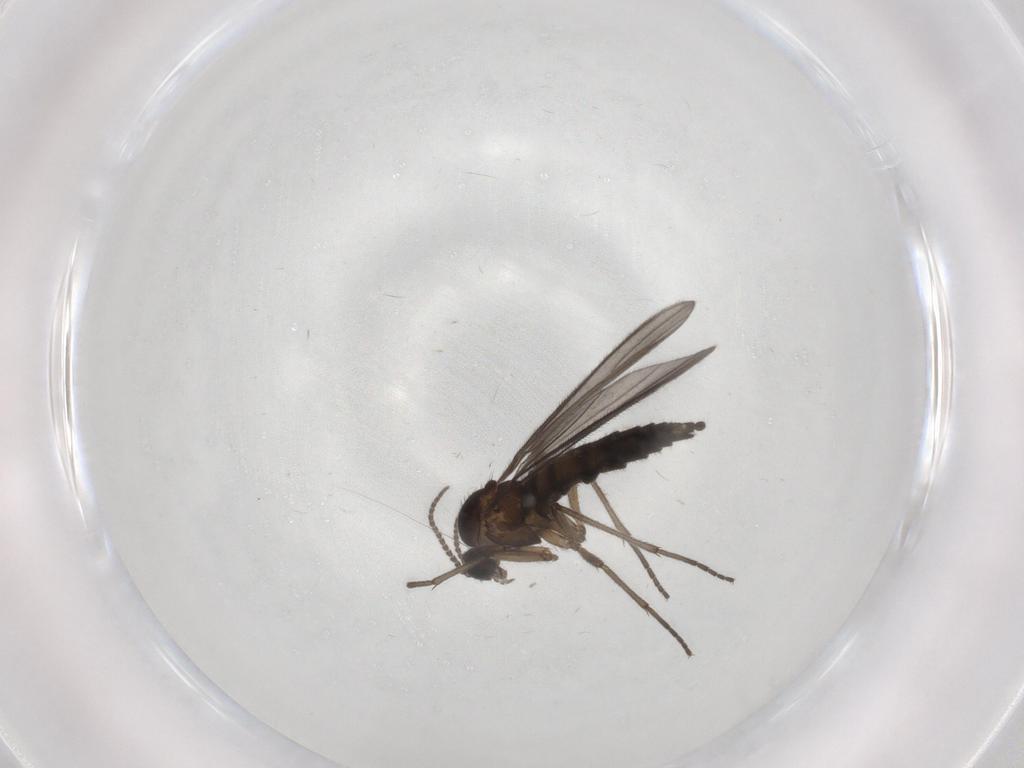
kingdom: Animalia
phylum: Arthropoda
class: Insecta
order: Diptera
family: Sciaridae
